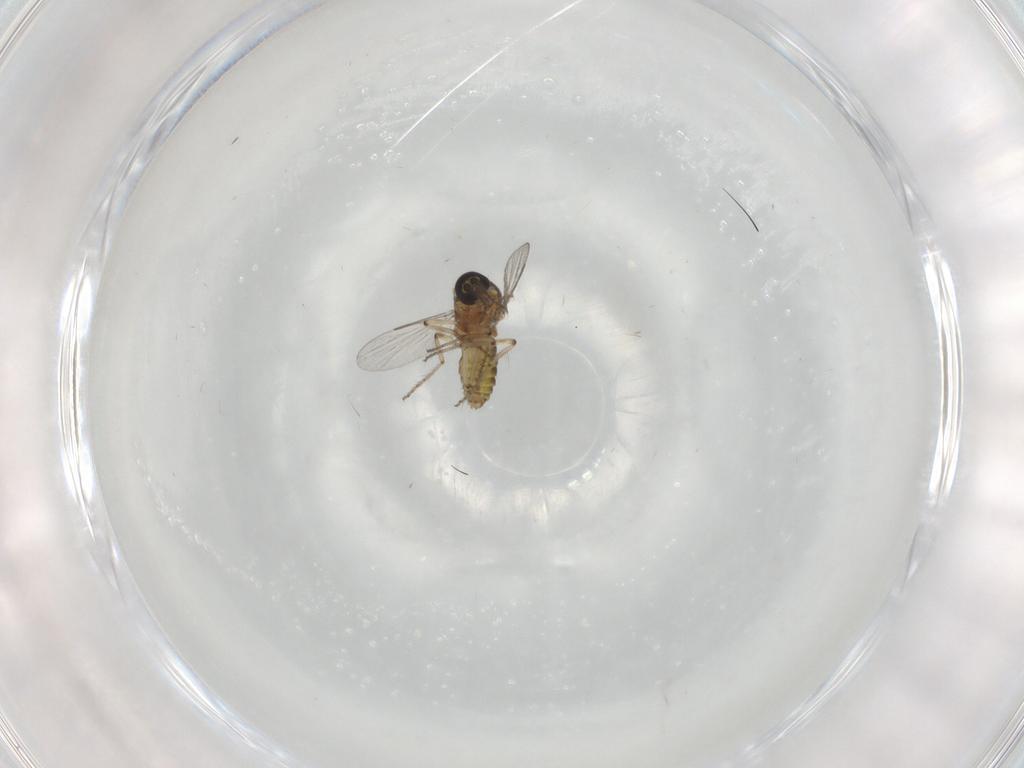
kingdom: Animalia
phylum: Arthropoda
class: Insecta
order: Diptera
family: Ceratopogonidae
